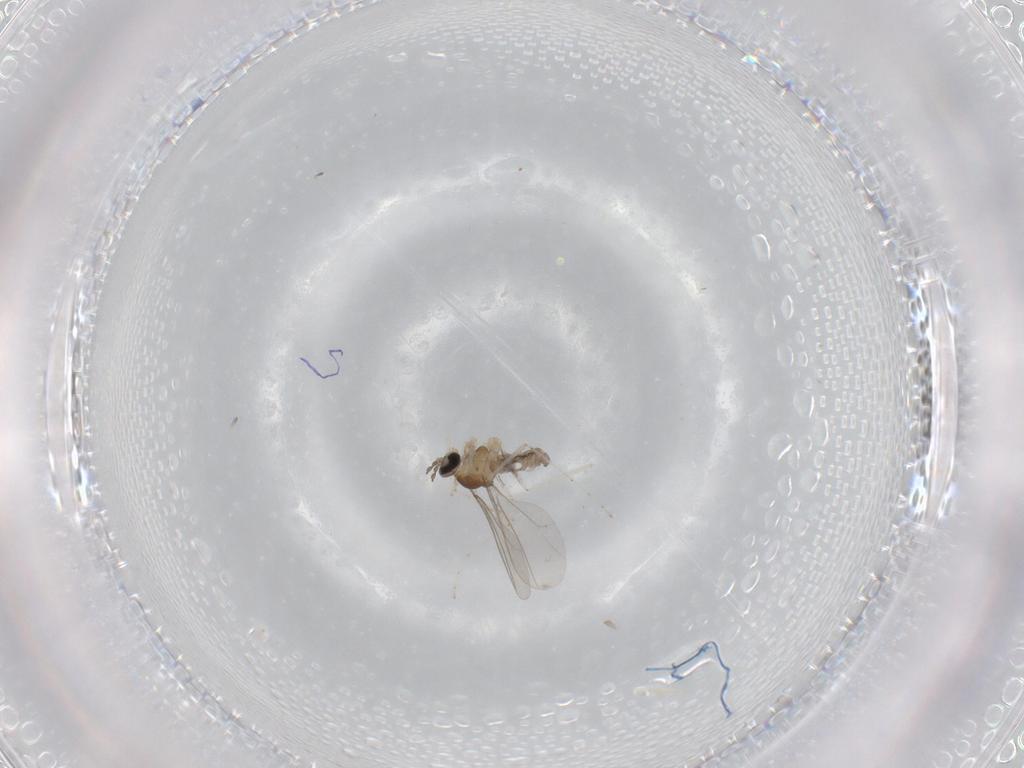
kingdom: Animalia
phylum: Arthropoda
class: Insecta
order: Diptera
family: Cecidomyiidae
